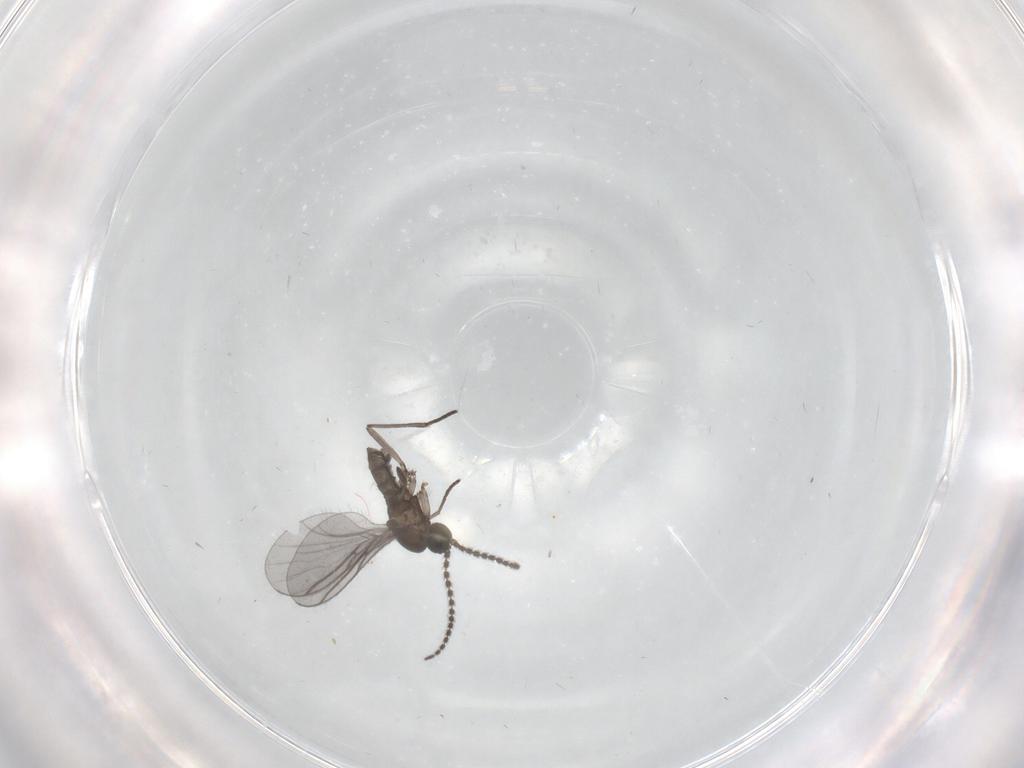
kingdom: Animalia
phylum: Arthropoda
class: Insecta
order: Diptera
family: Sciaridae
